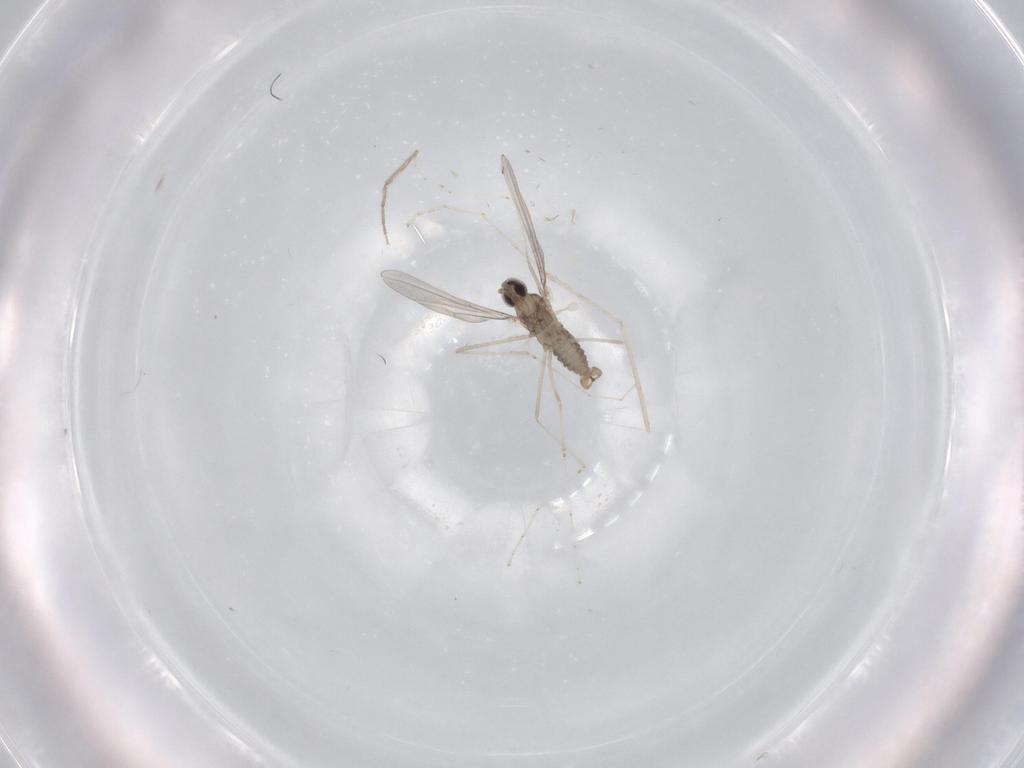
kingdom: Animalia
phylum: Arthropoda
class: Insecta
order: Diptera
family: Chironomidae
